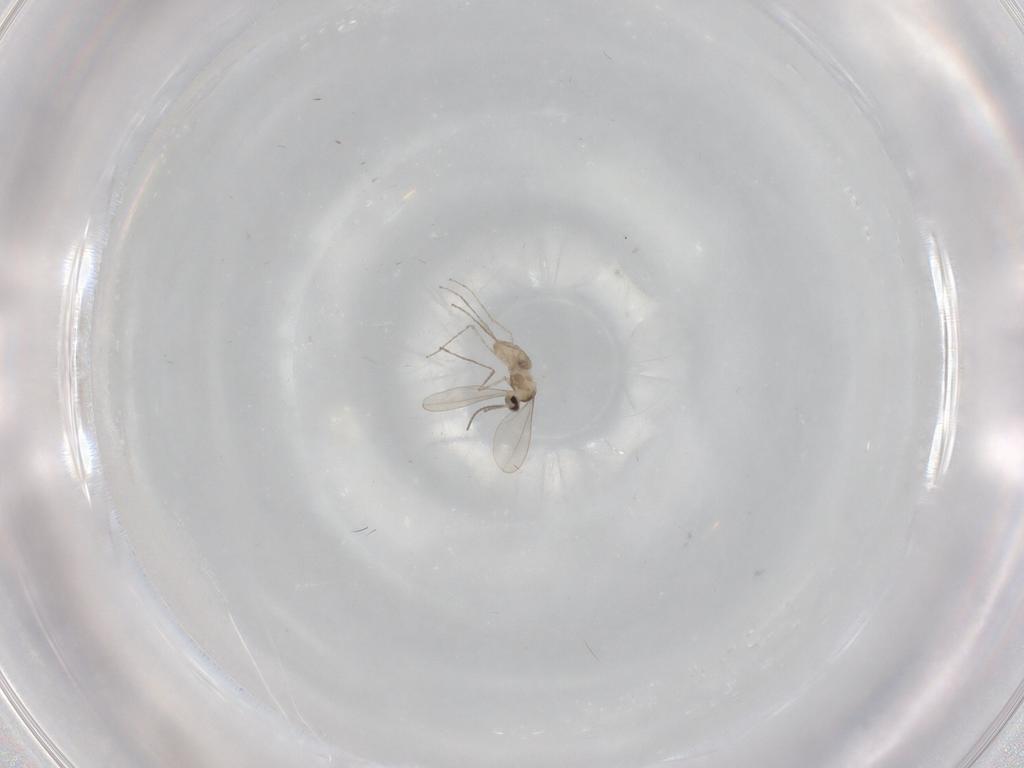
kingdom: Animalia
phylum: Arthropoda
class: Insecta
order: Diptera
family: Cecidomyiidae
